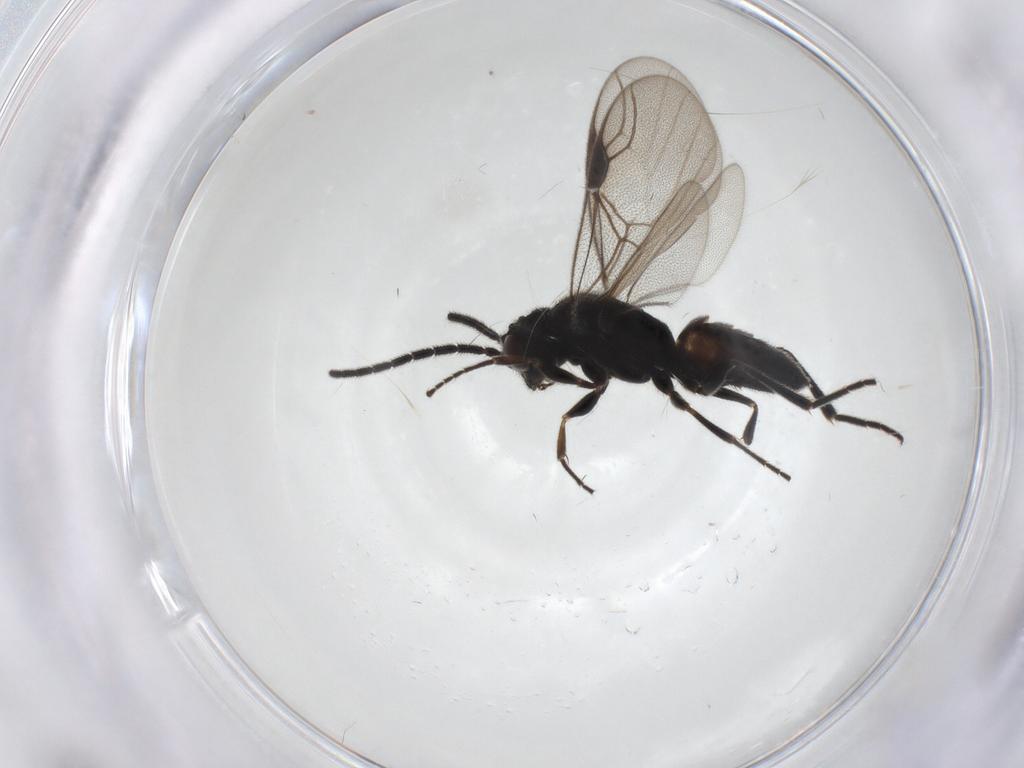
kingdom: Animalia
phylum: Arthropoda
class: Insecta
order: Hymenoptera
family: Dryinidae
